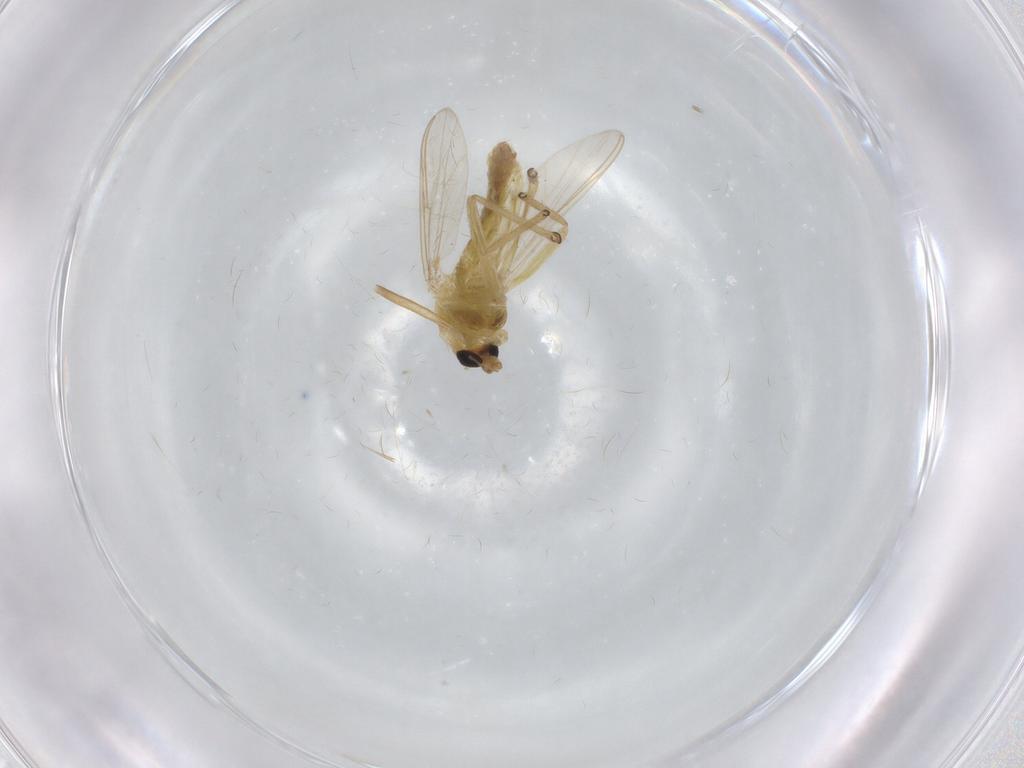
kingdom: Animalia
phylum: Arthropoda
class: Insecta
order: Diptera
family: Chironomidae
